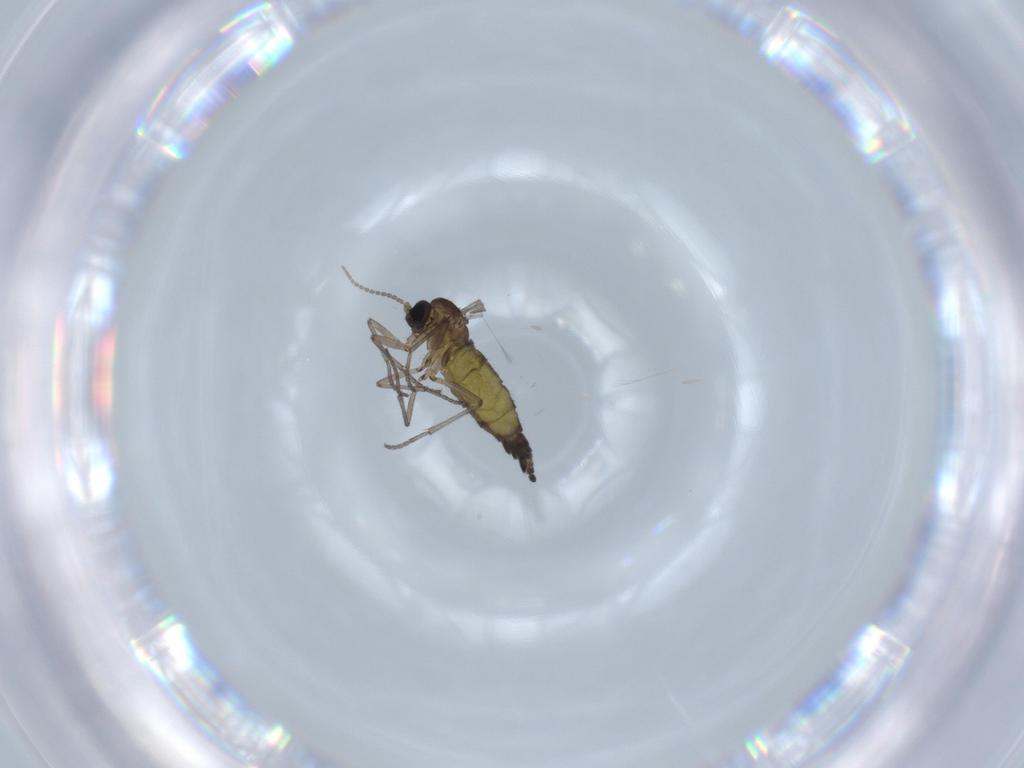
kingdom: Animalia
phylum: Arthropoda
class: Insecta
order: Diptera
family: Sciaridae
